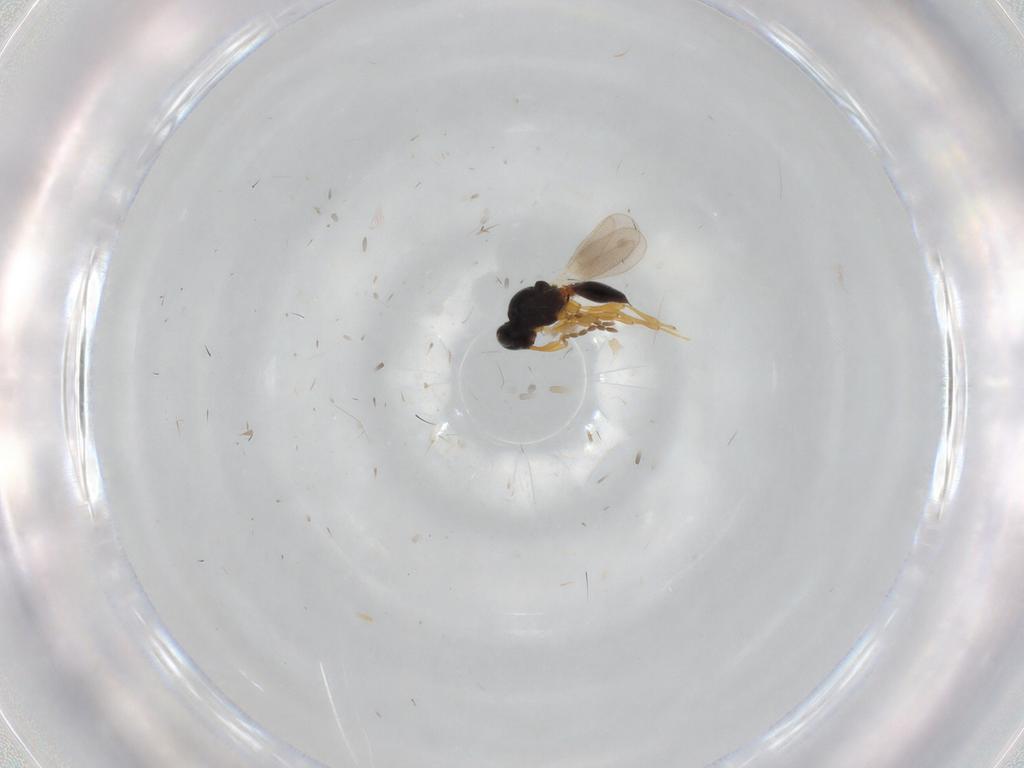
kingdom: Animalia
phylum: Arthropoda
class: Insecta
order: Hymenoptera
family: Platygastridae
